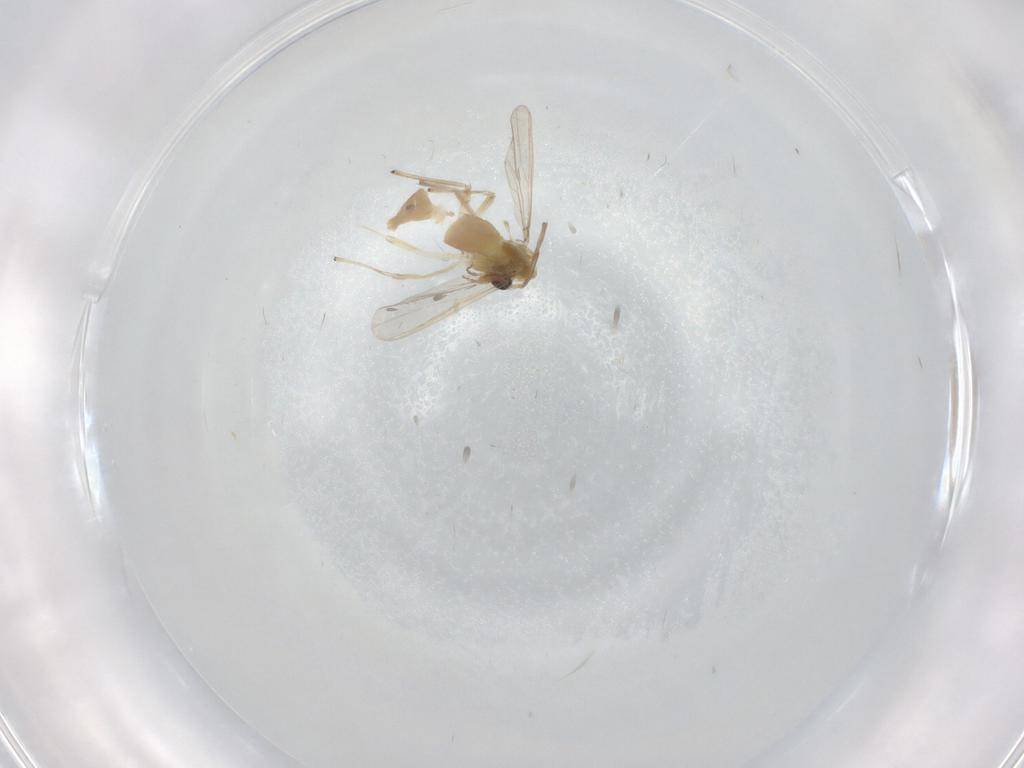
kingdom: Animalia
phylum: Arthropoda
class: Insecta
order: Diptera
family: Chironomidae
